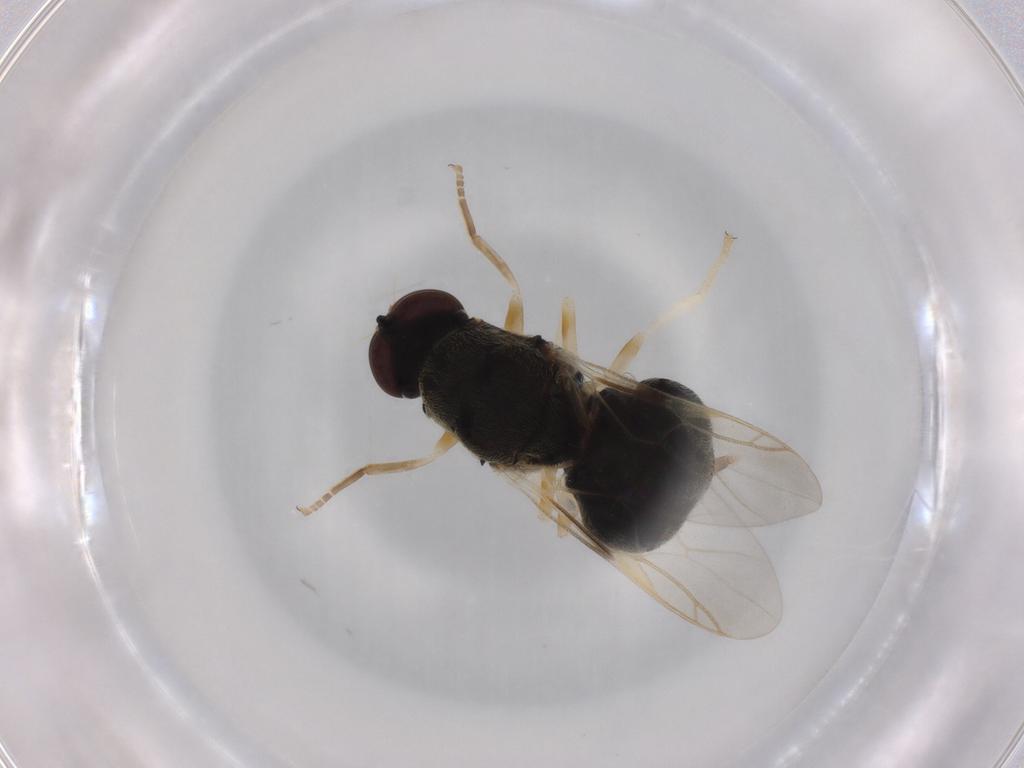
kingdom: Animalia
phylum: Arthropoda
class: Insecta
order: Diptera
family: Stratiomyidae
